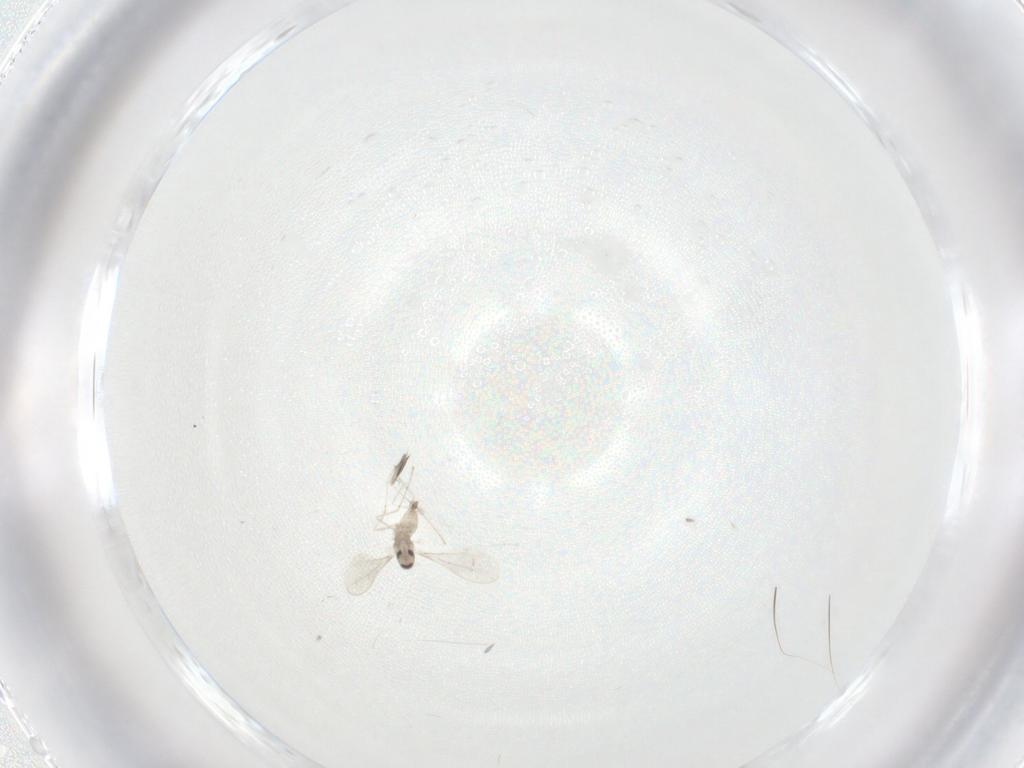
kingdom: Animalia
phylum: Arthropoda
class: Insecta
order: Diptera
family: Cecidomyiidae
